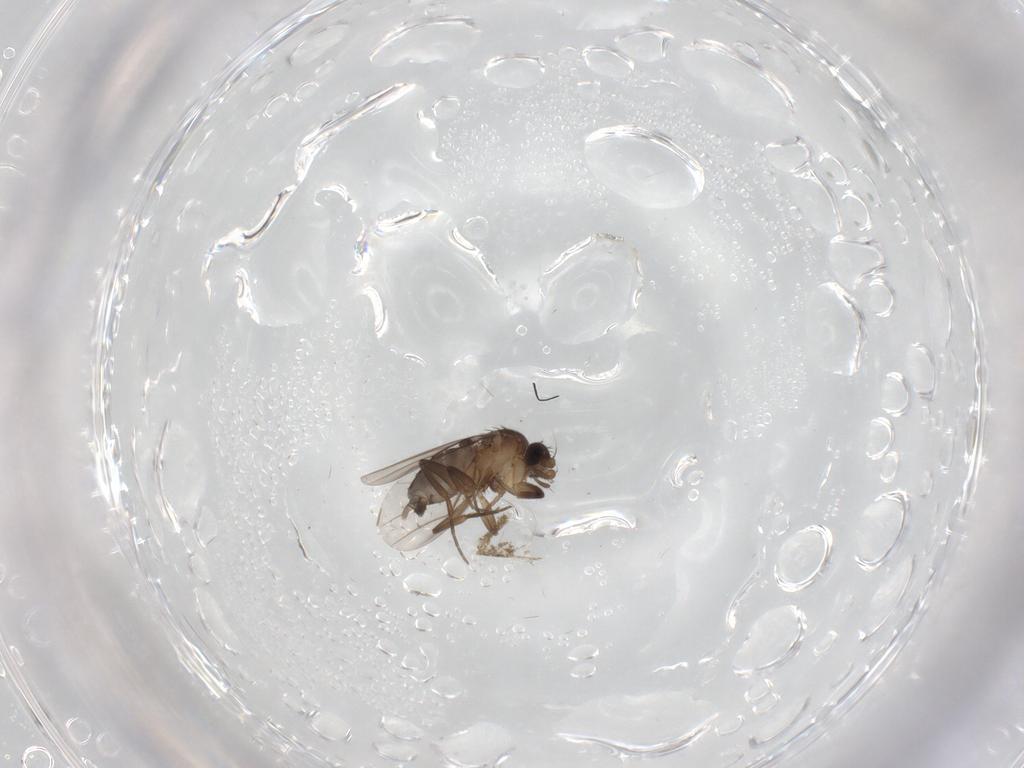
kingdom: Animalia
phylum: Arthropoda
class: Insecta
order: Diptera
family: Phoridae
